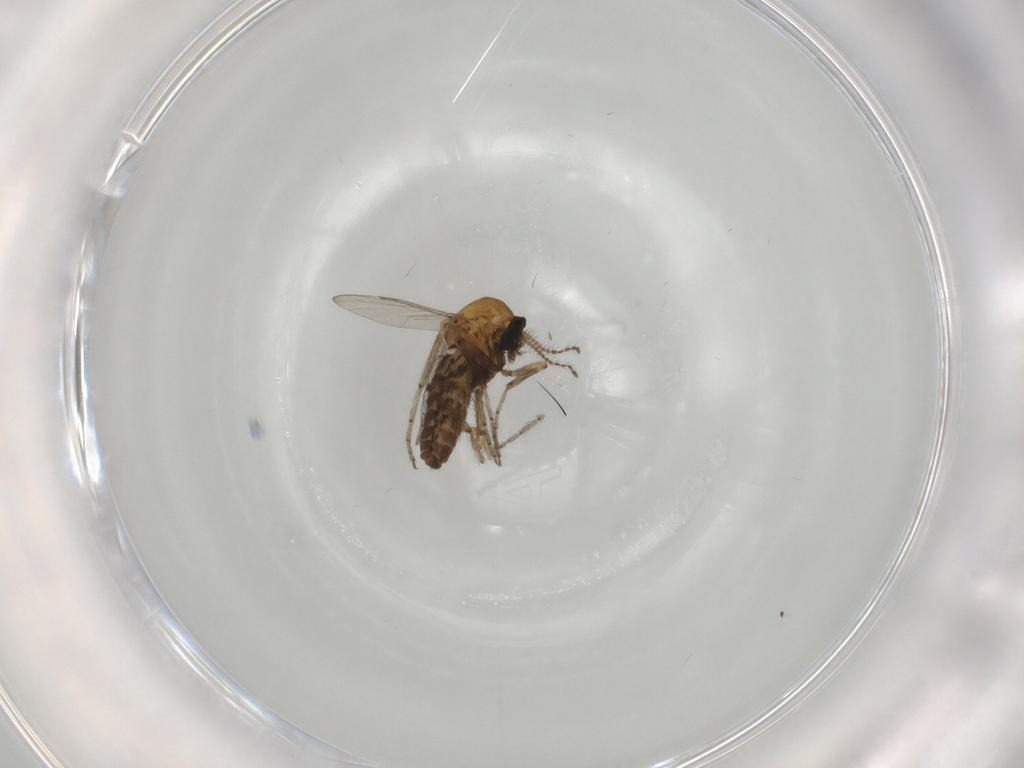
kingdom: Animalia
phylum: Arthropoda
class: Insecta
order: Diptera
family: Ceratopogonidae
